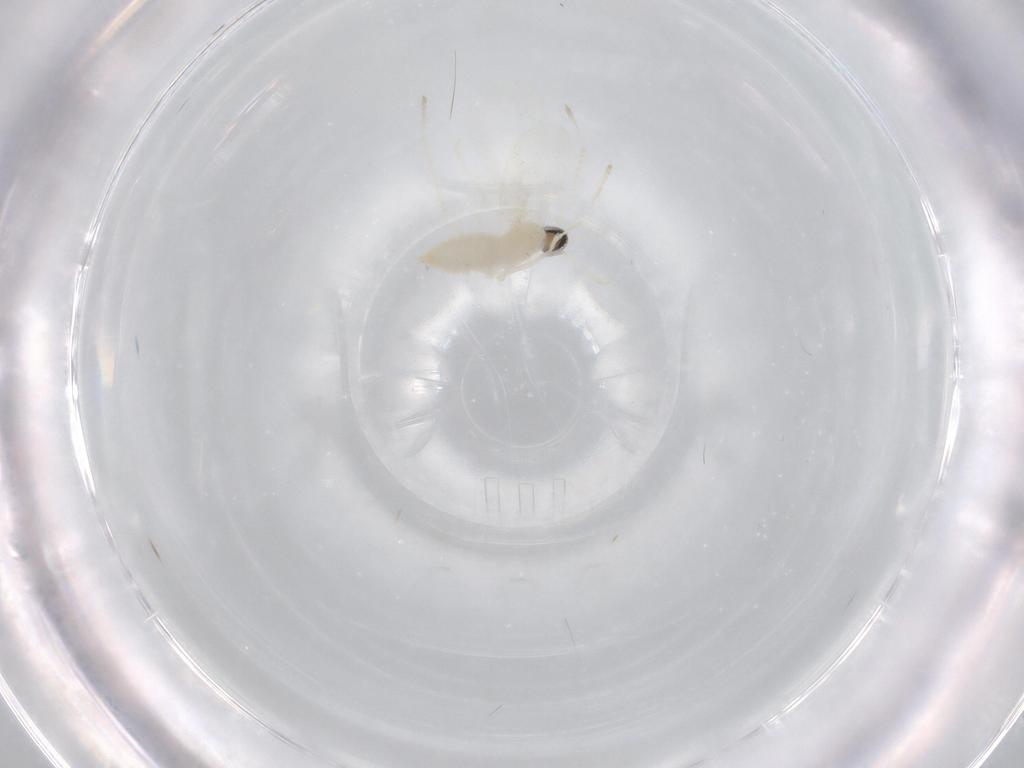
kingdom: Animalia
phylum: Arthropoda
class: Insecta
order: Diptera
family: Cecidomyiidae
